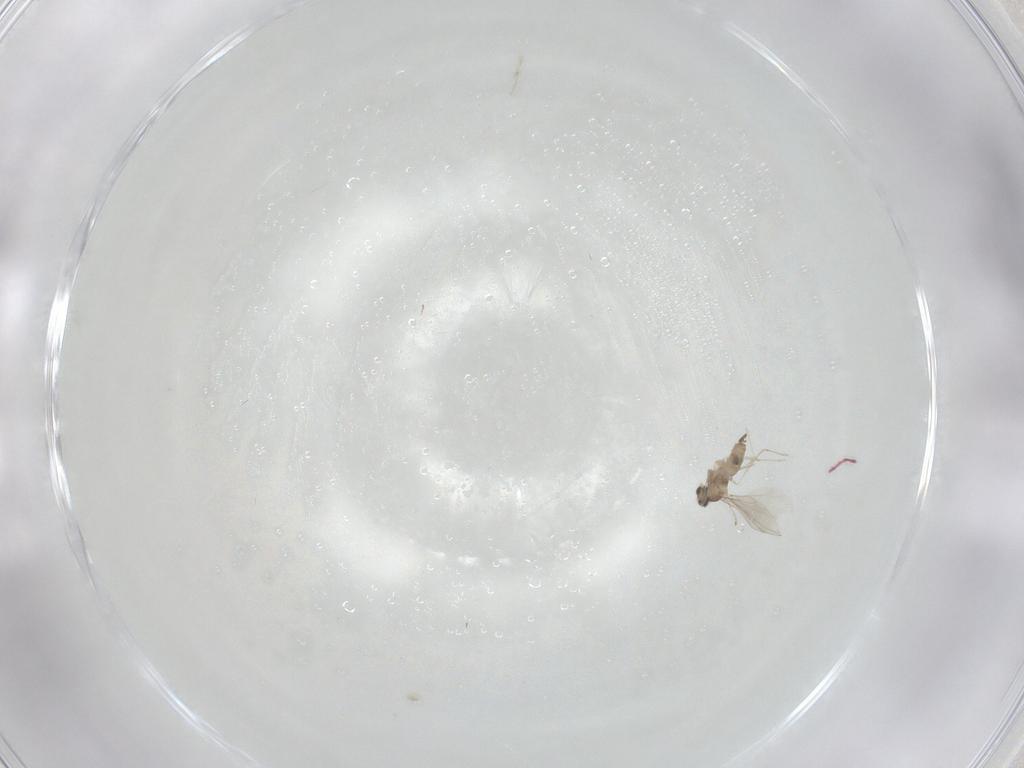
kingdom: Animalia
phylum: Arthropoda
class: Insecta
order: Diptera
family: Cecidomyiidae
